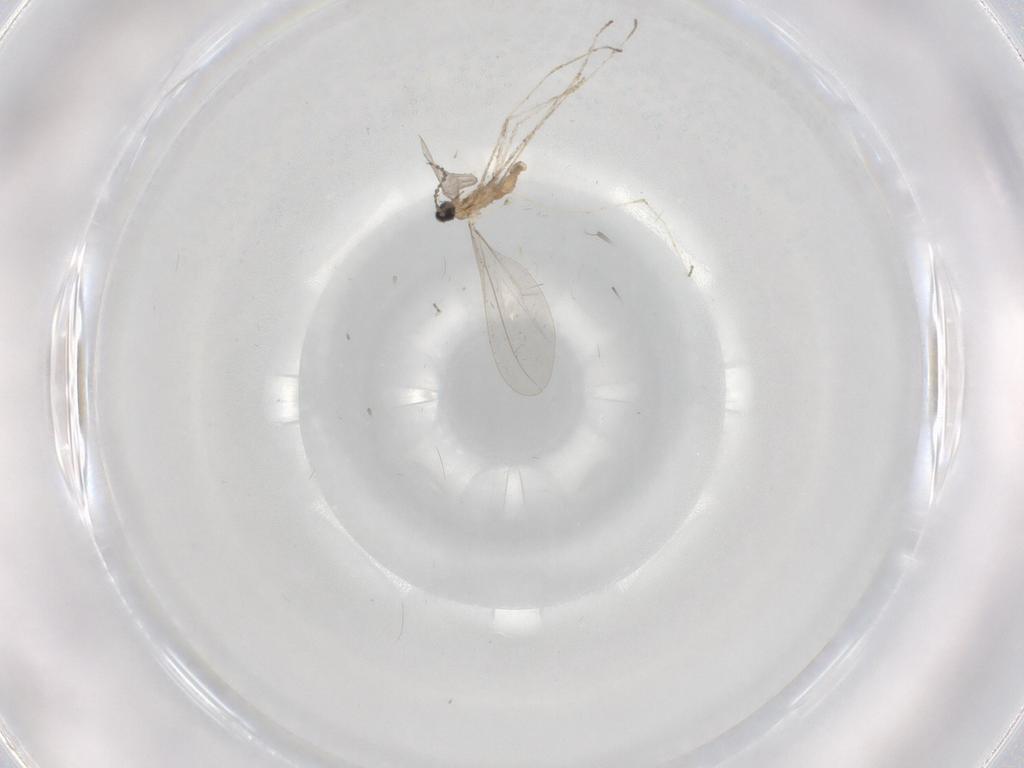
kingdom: Animalia
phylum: Arthropoda
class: Insecta
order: Diptera
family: Cecidomyiidae
